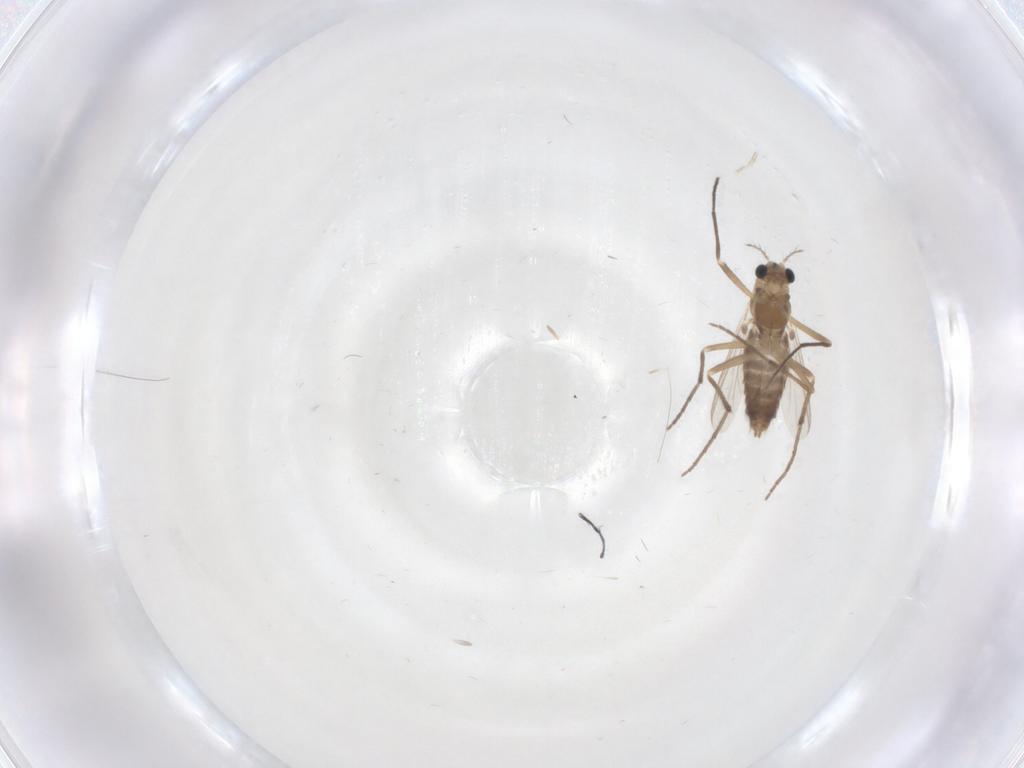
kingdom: Animalia
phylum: Arthropoda
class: Insecta
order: Diptera
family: Chironomidae
